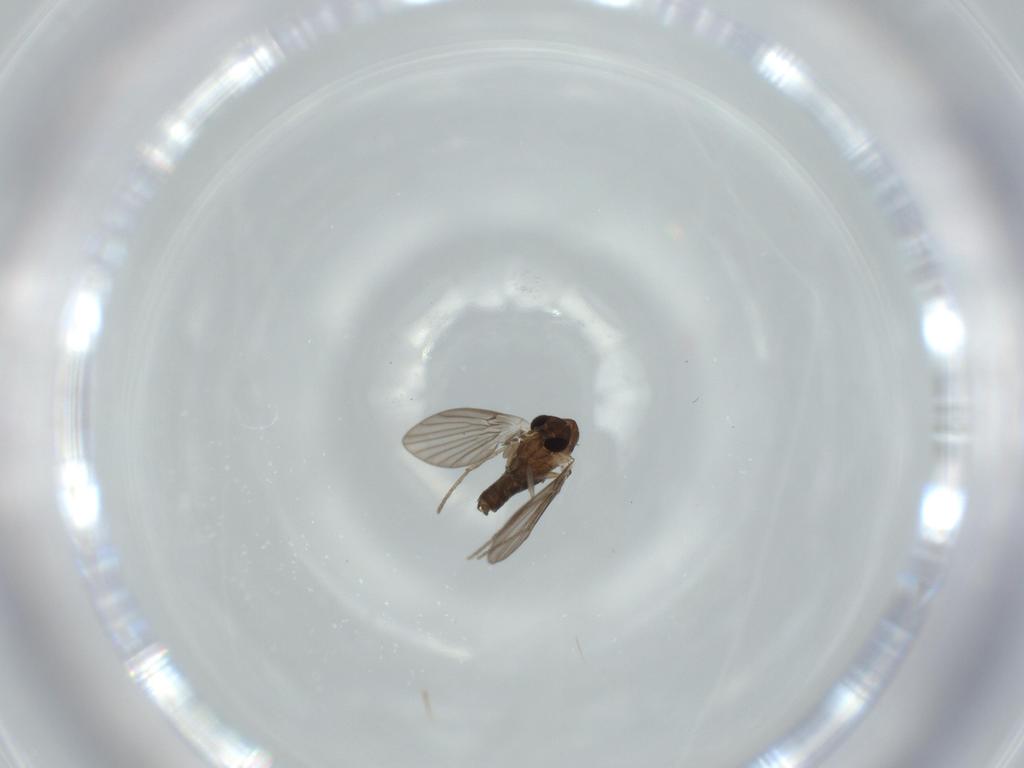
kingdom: Animalia
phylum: Arthropoda
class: Insecta
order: Diptera
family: Psychodidae
